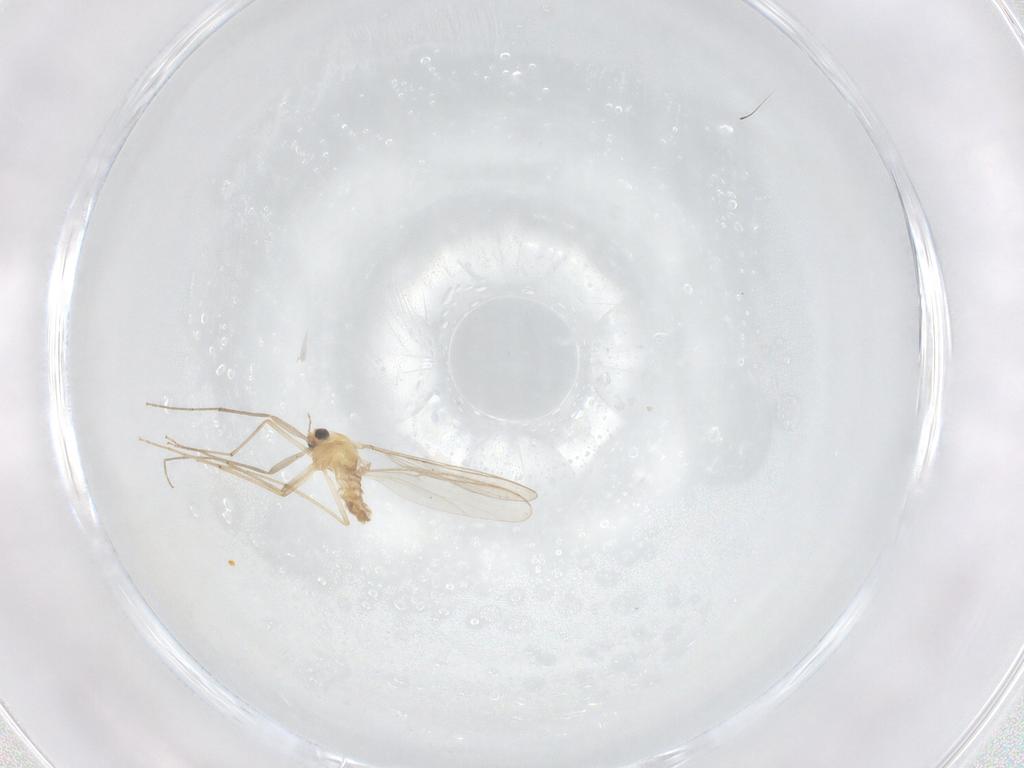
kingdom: Animalia
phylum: Arthropoda
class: Insecta
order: Diptera
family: Chironomidae
